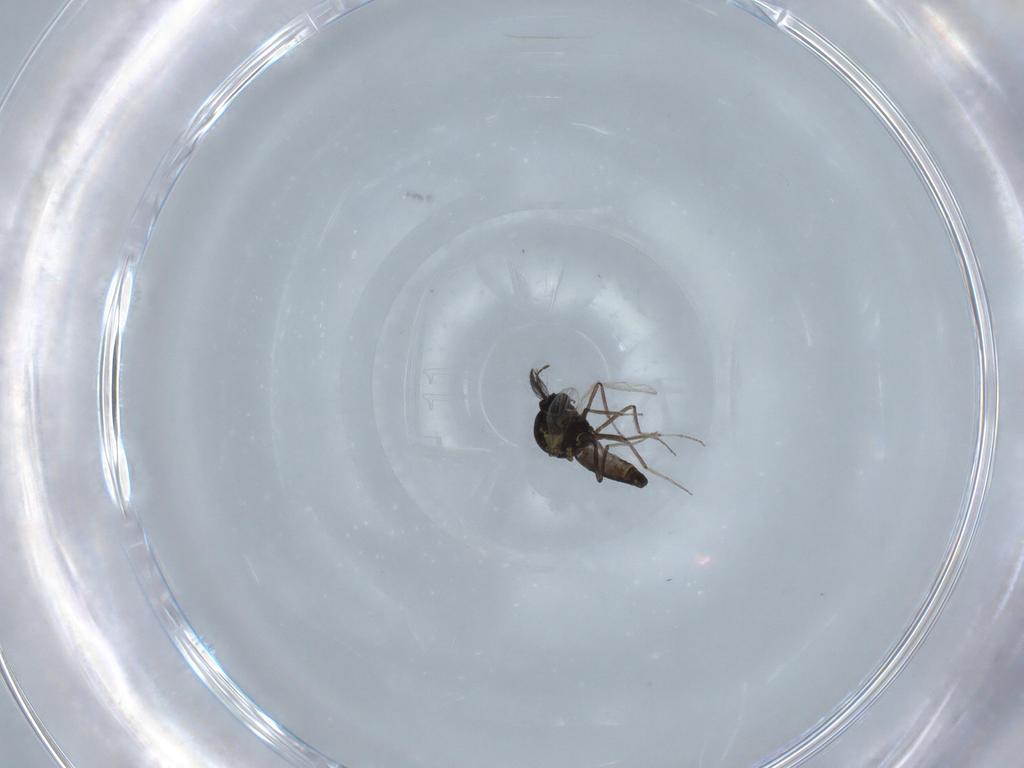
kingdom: Animalia
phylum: Arthropoda
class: Insecta
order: Diptera
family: Ceratopogonidae
